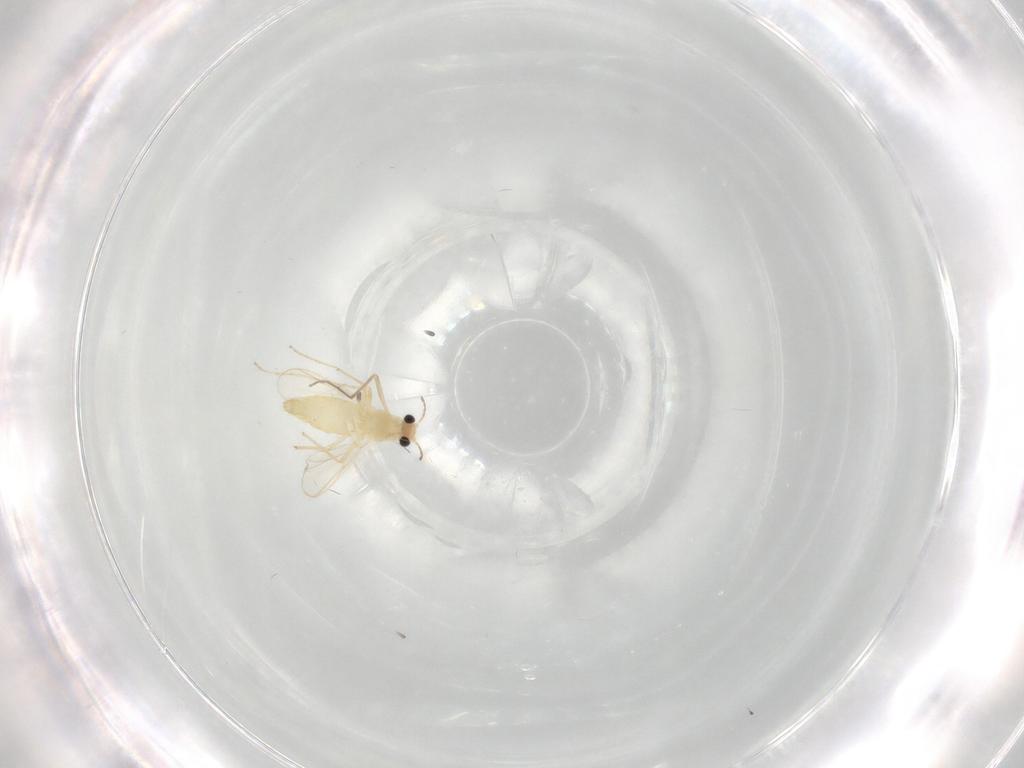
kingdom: Animalia
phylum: Arthropoda
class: Insecta
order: Diptera
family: Chironomidae
